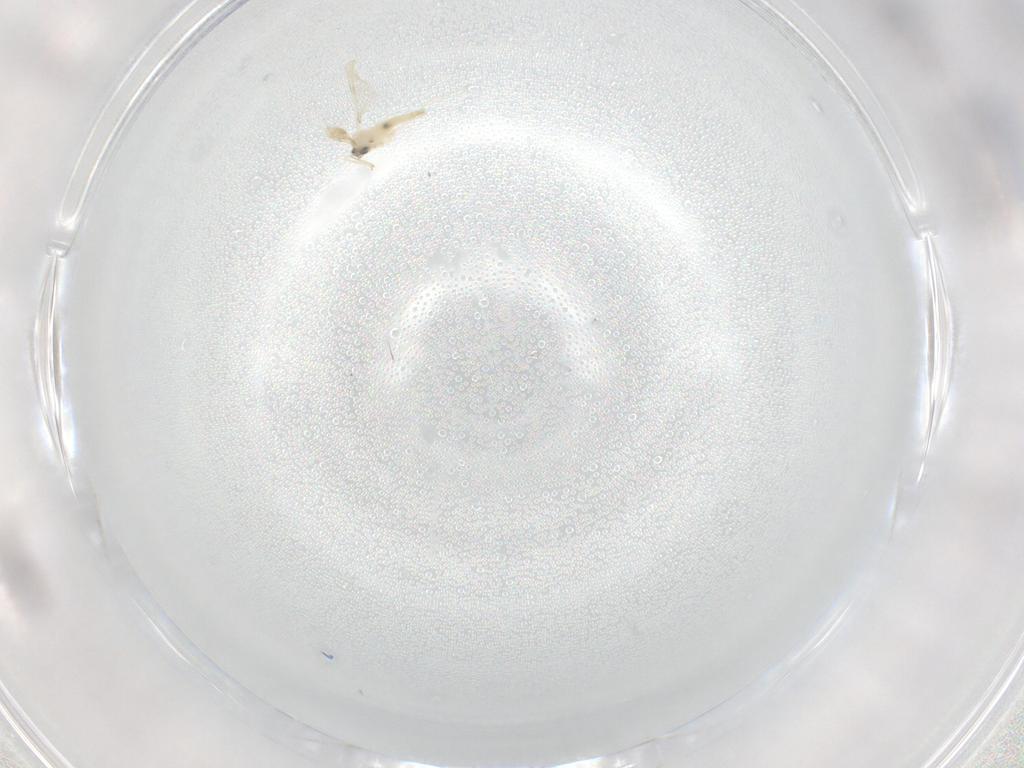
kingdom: Animalia
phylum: Arthropoda
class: Insecta
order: Diptera
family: Cecidomyiidae
